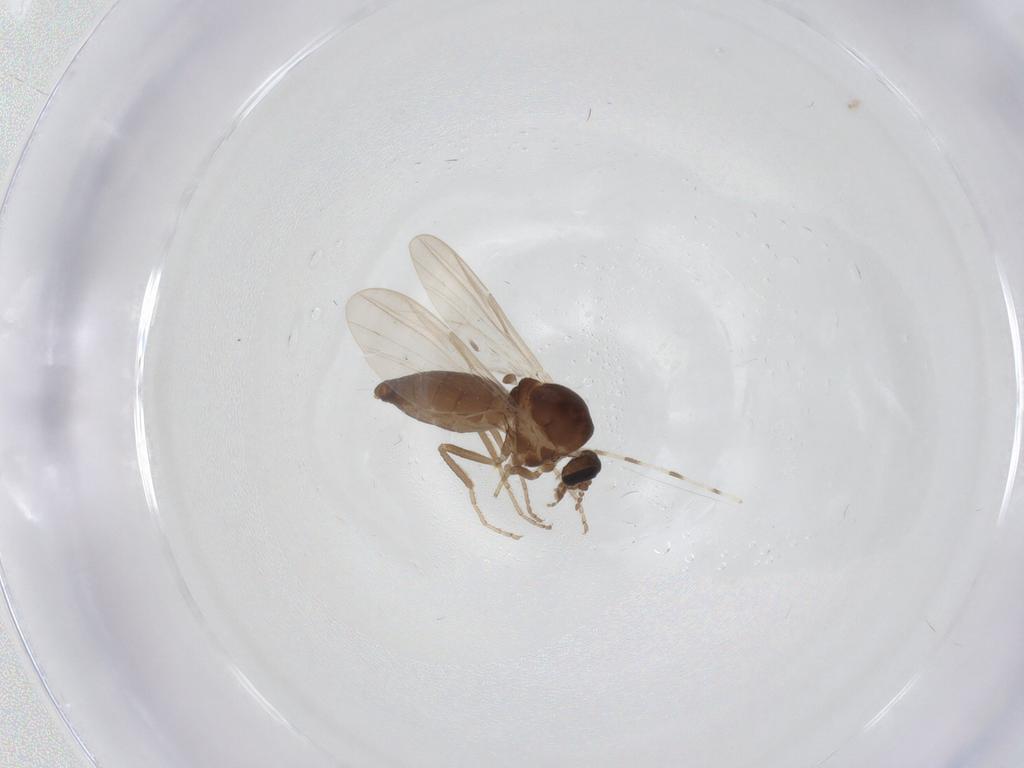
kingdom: Animalia
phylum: Arthropoda
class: Insecta
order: Diptera
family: Ceratopogonidae
